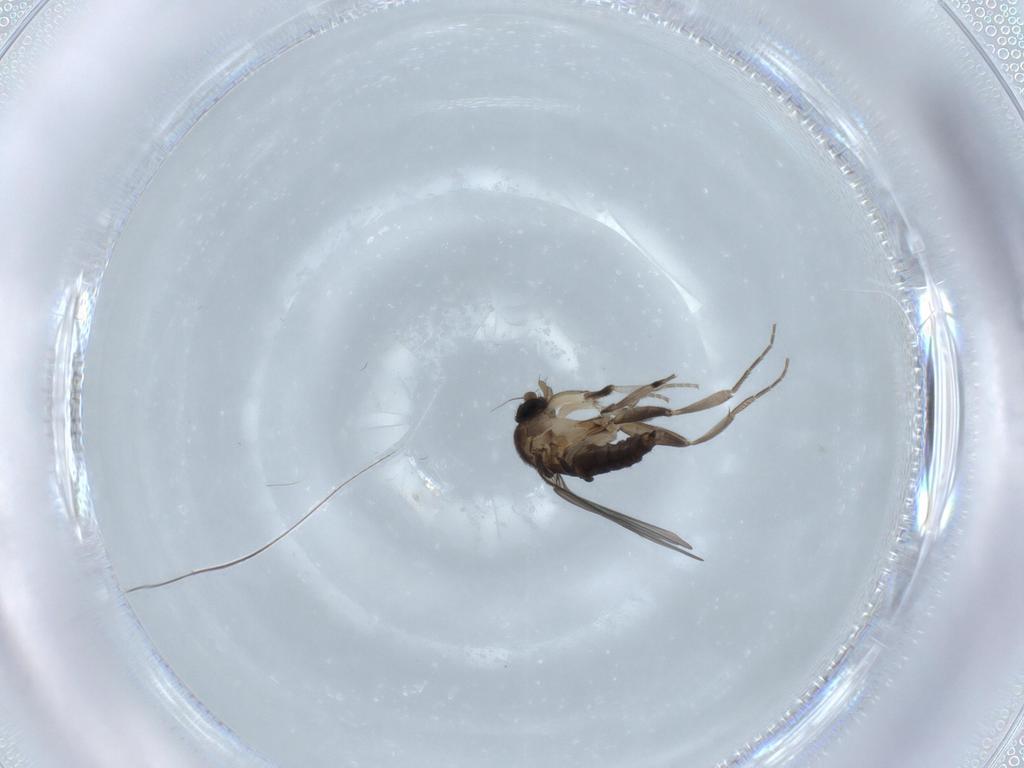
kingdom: Animalia
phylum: Arthropoda
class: Insecta
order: Diptera
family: Phoridae
